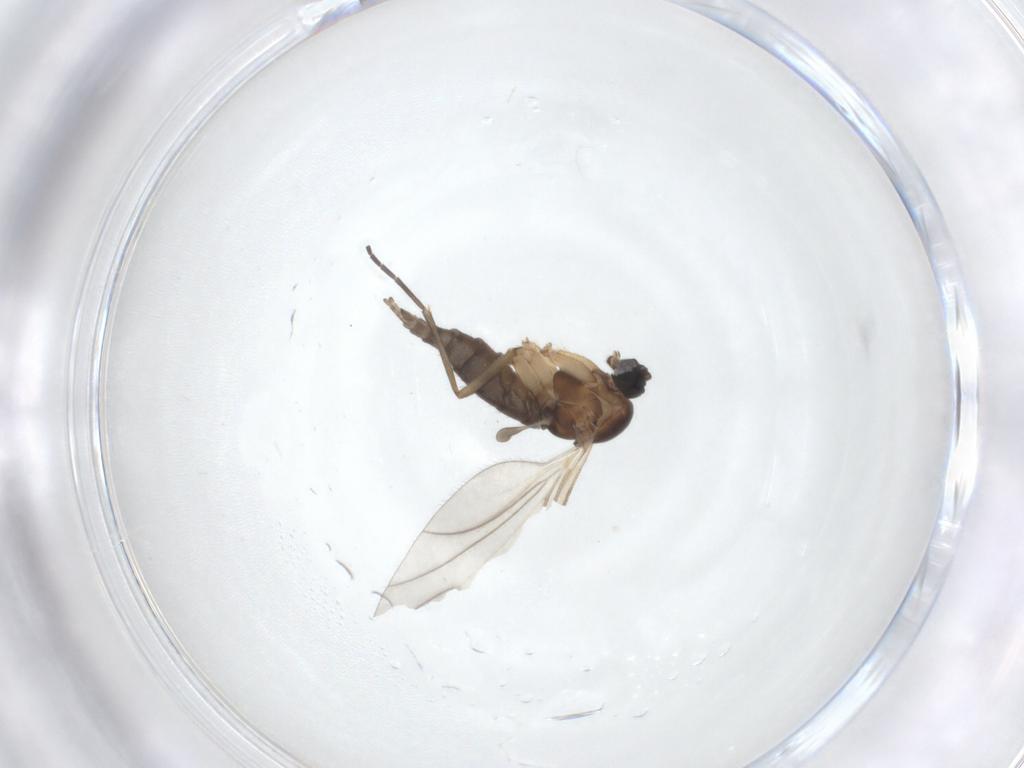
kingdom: Animalia
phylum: Arthropoda
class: Insecta
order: Diptera
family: Sciaridae
